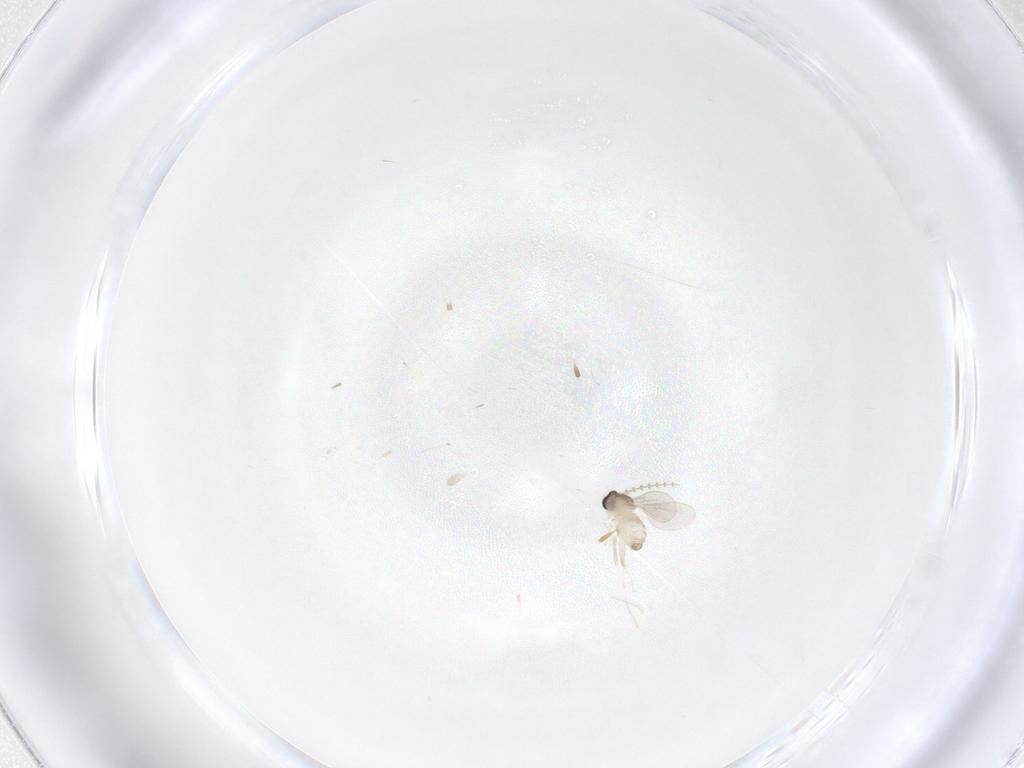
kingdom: Animalia
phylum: Arthropoda
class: Insecta
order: Diptera
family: Cecidomyiidae
